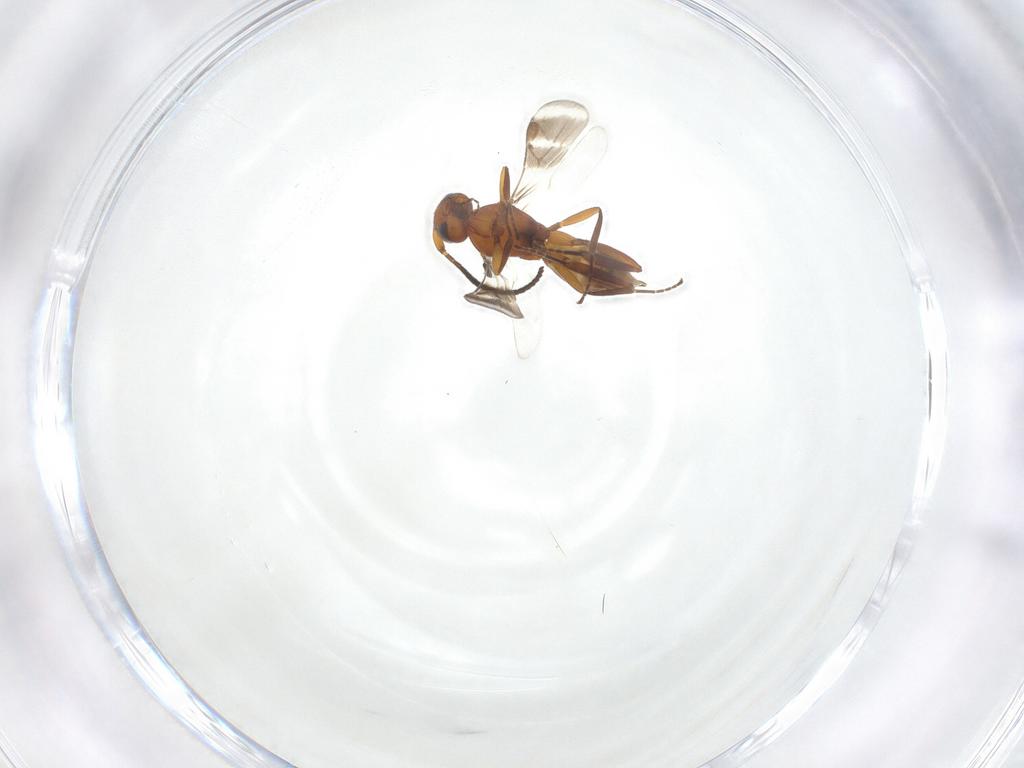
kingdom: Animalia
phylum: Arthropoda
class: Insecta
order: Hymenoptera
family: Braconidae
